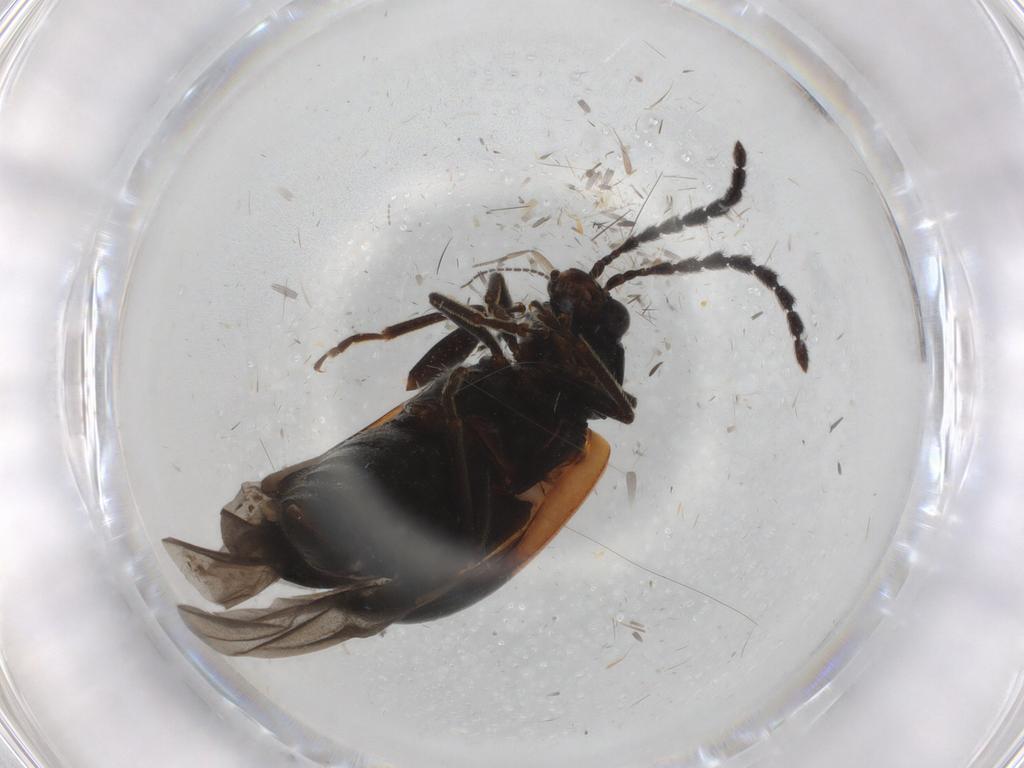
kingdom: Animalia
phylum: Arthropoda
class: Insecta
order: Coleoptera
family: Chrysomelidae
